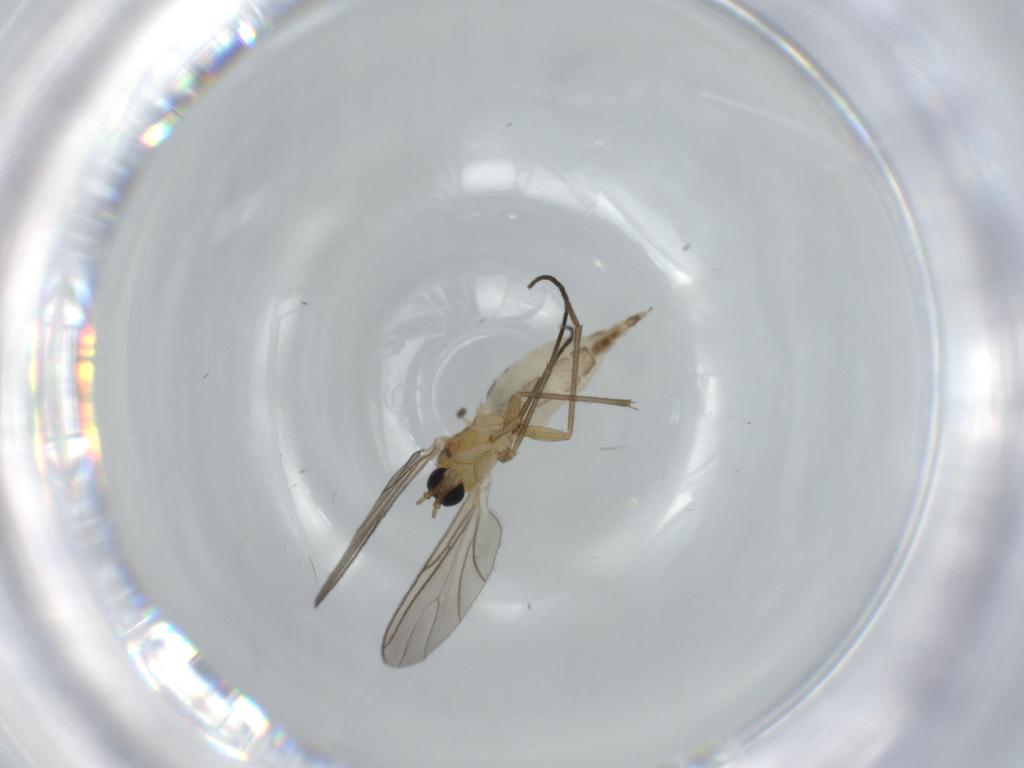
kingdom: Animalia
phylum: Arthropoda
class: Insecta
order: Diptera
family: Sciaridae
